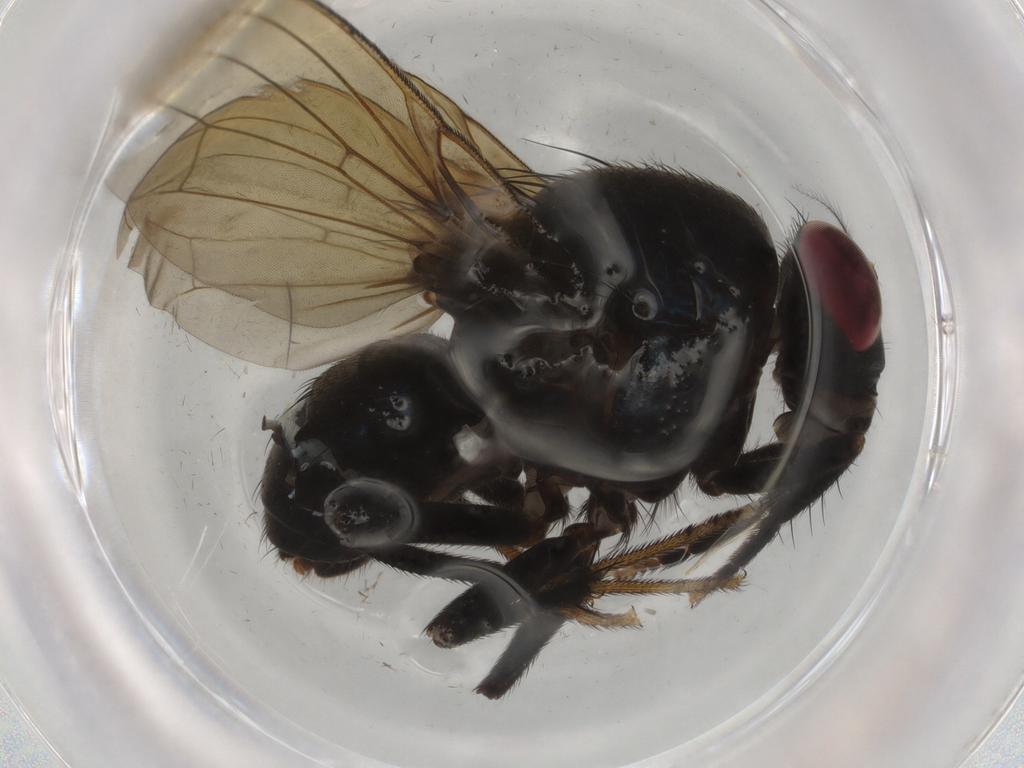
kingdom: Animalia
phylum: Arthropoda
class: Insecta
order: Diptera
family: Lauxaniidae
